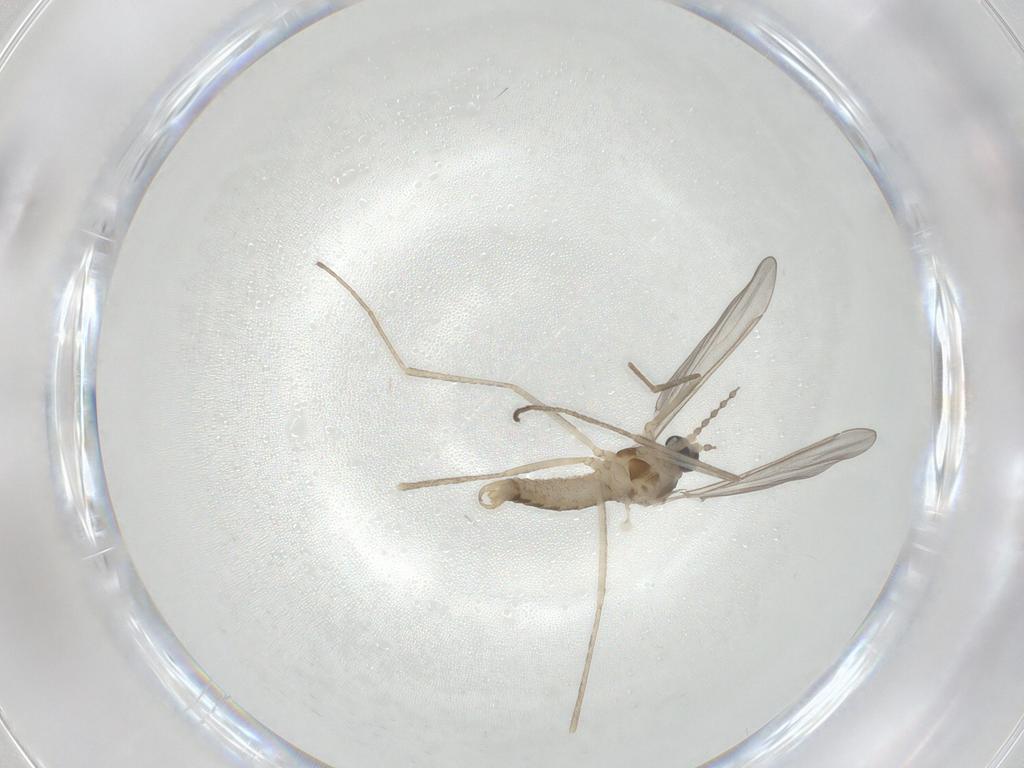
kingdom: Animalia
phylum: Arthropoda
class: Insecta
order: Diptera
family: Cecidomyiidae
